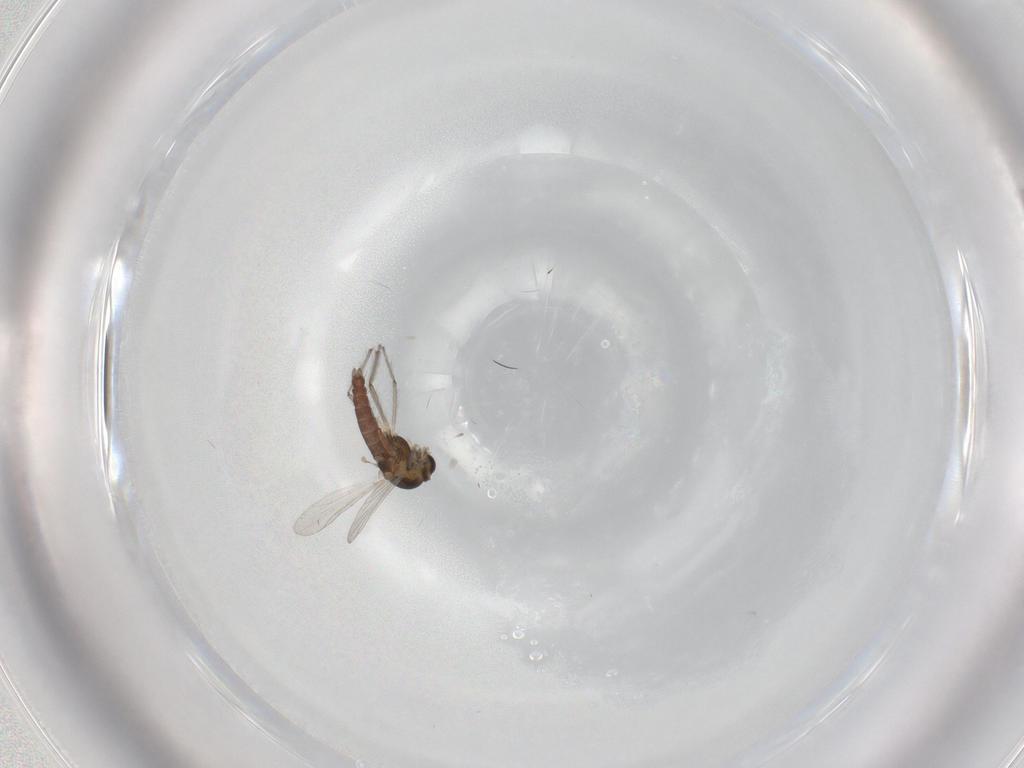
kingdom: Animalia
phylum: Arthropoda
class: Insecta
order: Diptera
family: Chironomidae
